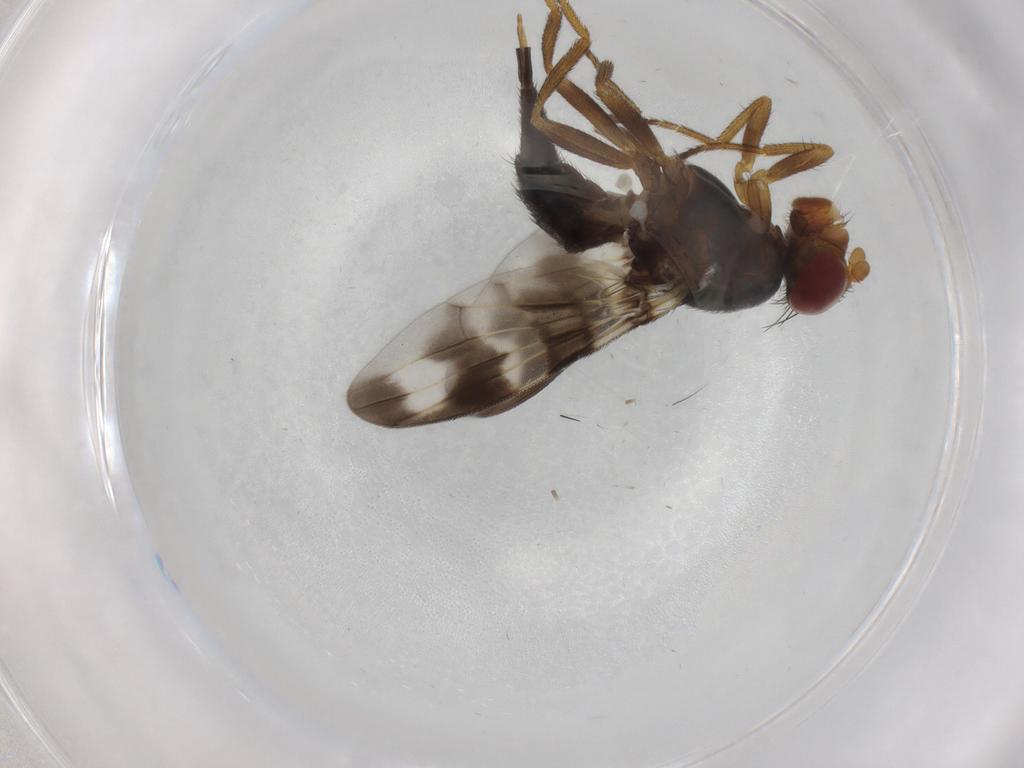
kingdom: Animalia
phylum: Arthropoda
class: Insecta
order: Diptera
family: Ulidiidae
